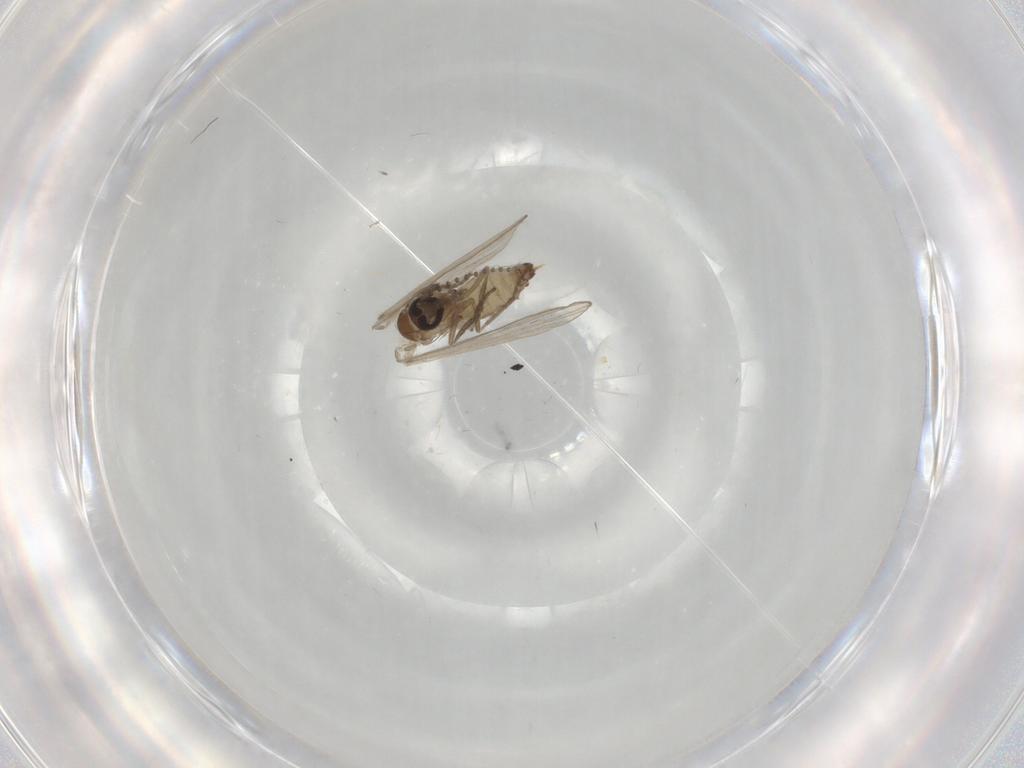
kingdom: Animalia
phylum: Arthropoda
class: Insecta
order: Diptera
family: Psychodidae
